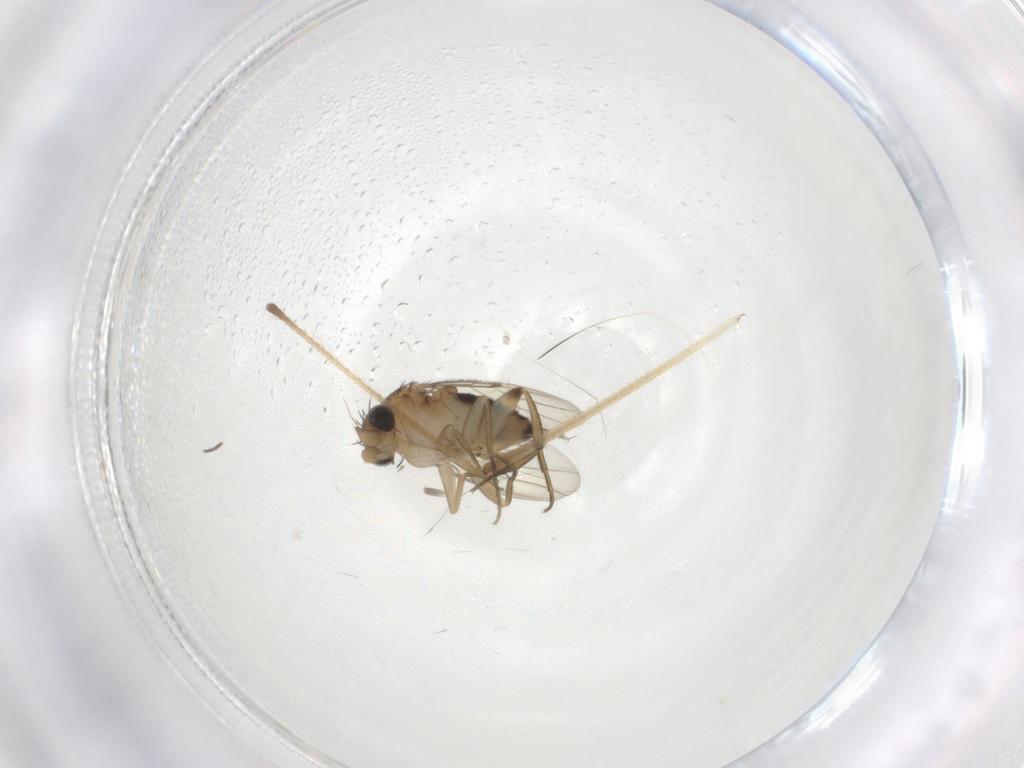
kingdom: Animalia
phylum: Arthropoda
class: Insecta
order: Diptera
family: Limoniidae
